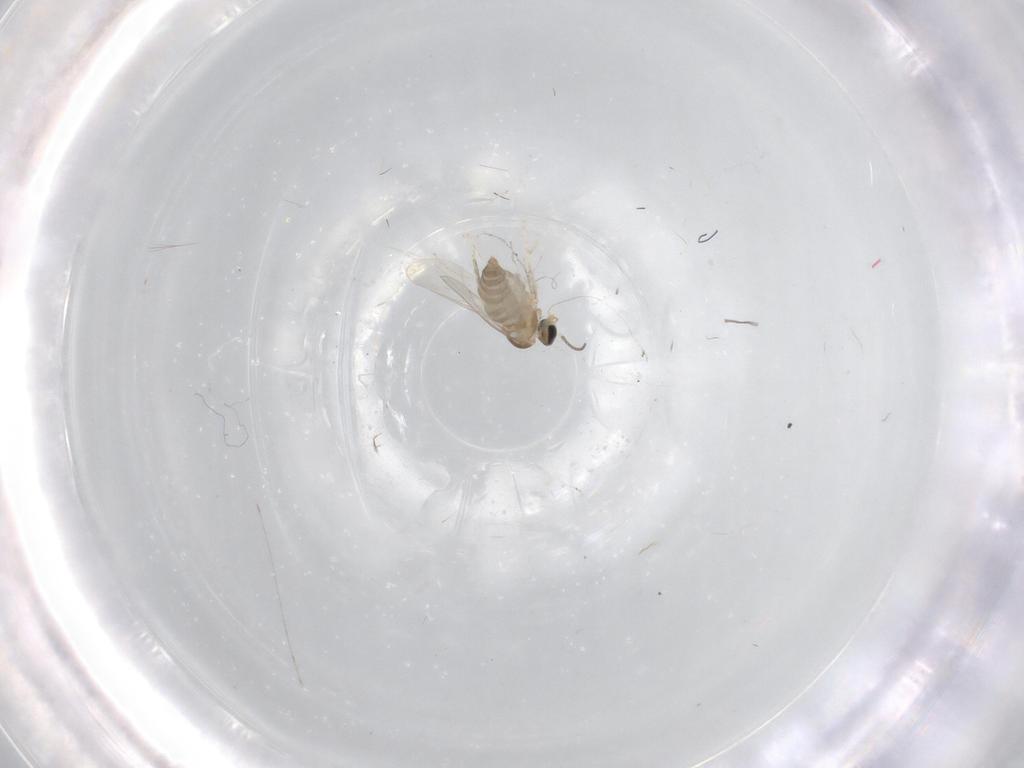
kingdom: Animalia
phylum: Arthropoda
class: Insecta
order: Diptera
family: Cecidomyiidae
